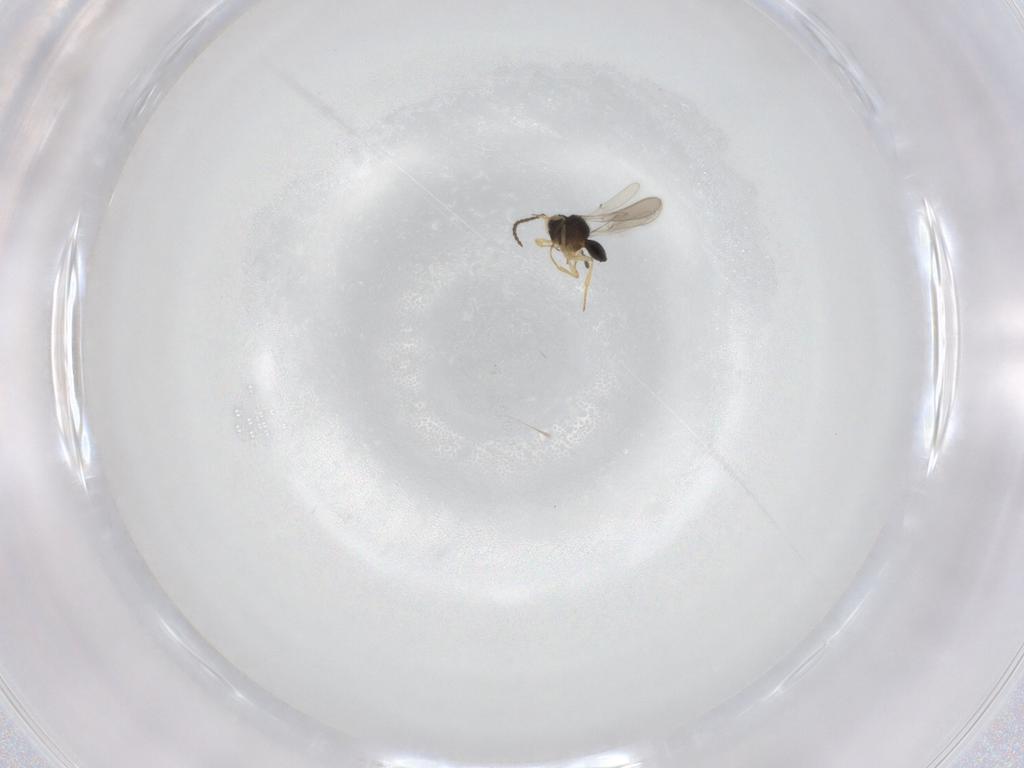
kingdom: Animalia
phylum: Arthropoda
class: Insecta
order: Hymenoptera
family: Scelionidae
